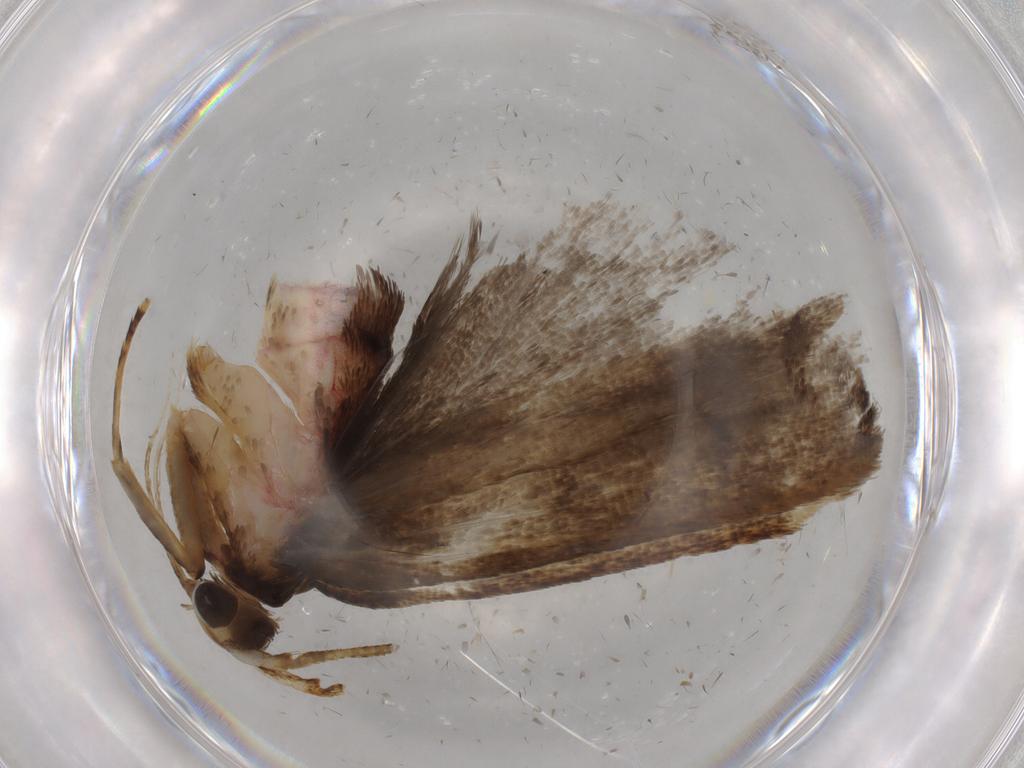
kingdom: Animalia
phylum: Arthropoda
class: Insecta
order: Lepidoptera
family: Autostichidae
